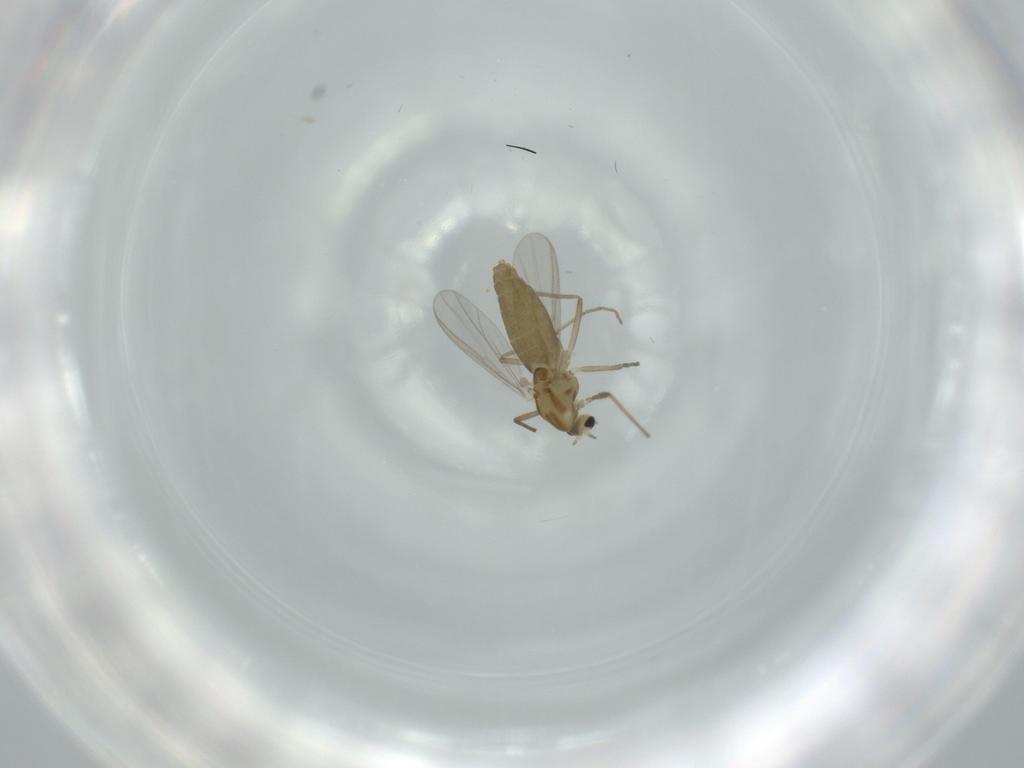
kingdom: Animalia
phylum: Arthropoda
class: Insecta
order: Diptera
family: Chironomidae
